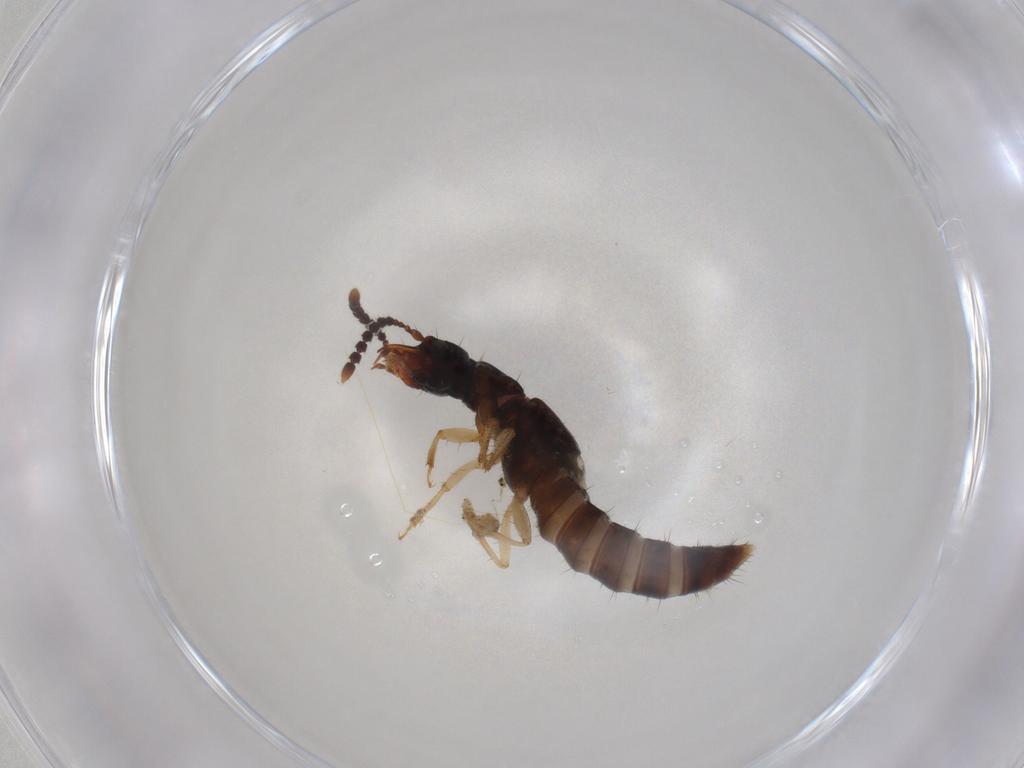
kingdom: Animalia
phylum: Arthropoda
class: Insecta
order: Coleoptera
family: Staphylinidae
